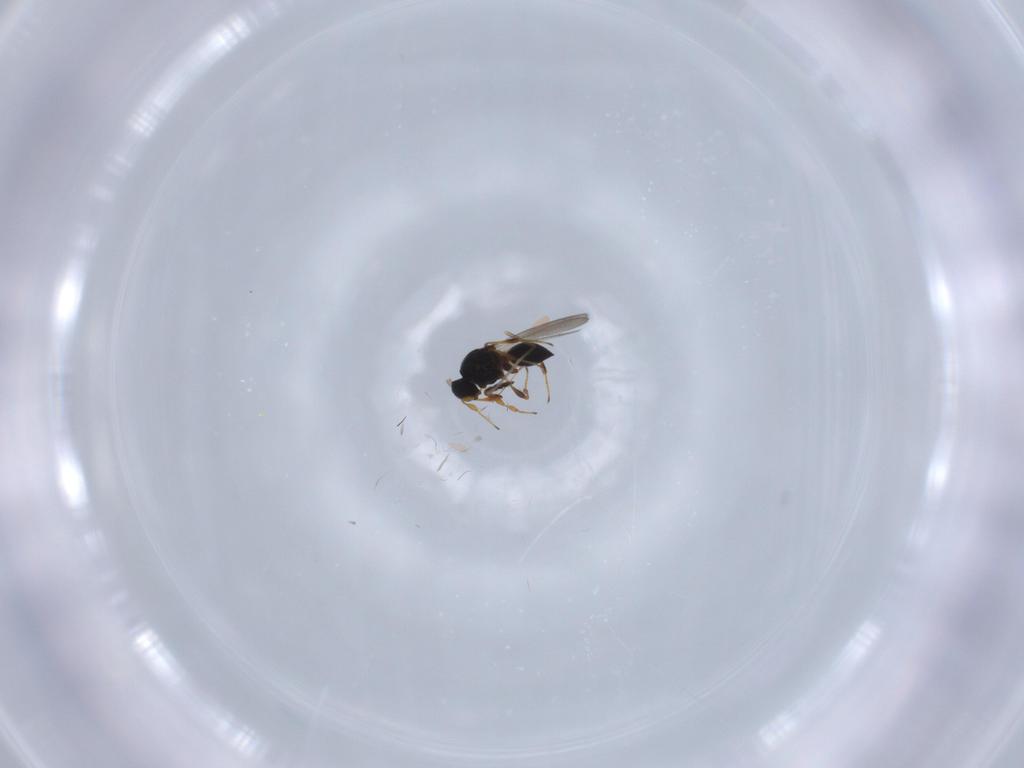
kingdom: Animalia
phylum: Arthropoda
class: Insecta
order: Hymenoptera
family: Platygastridae
